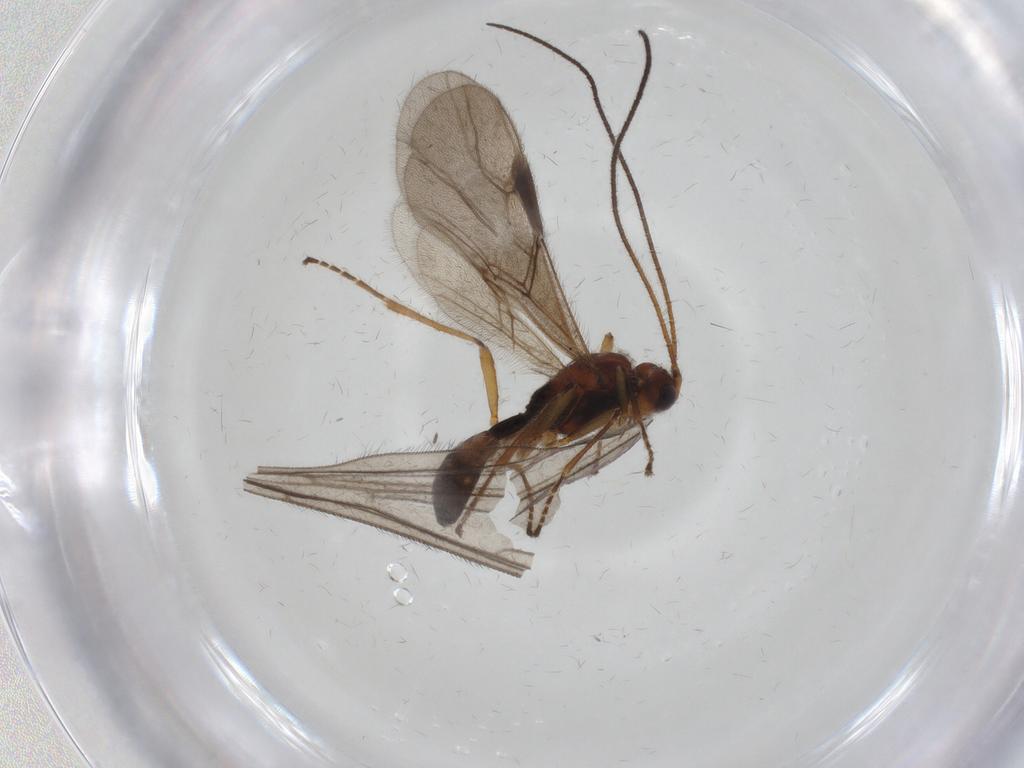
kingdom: Animalia
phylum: Arthropoda
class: Insecta
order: Hymenoptera
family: Braconidae
